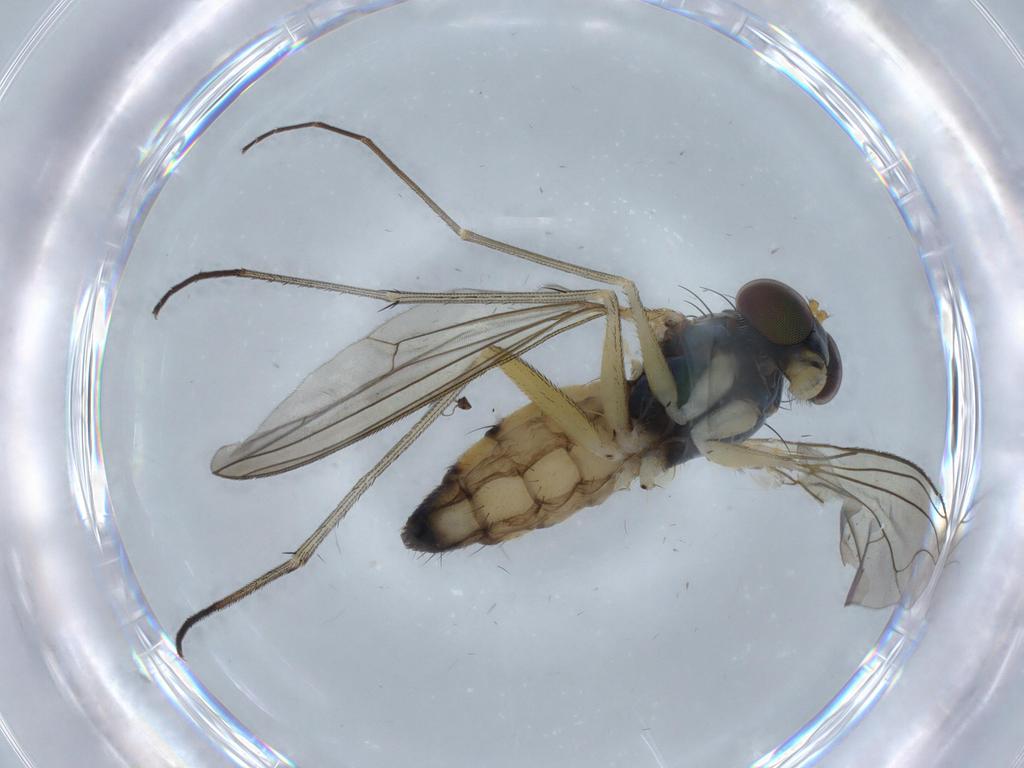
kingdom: Animalia
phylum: Arthropoda
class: Insecta
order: Diptera
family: Dolichopodidae
